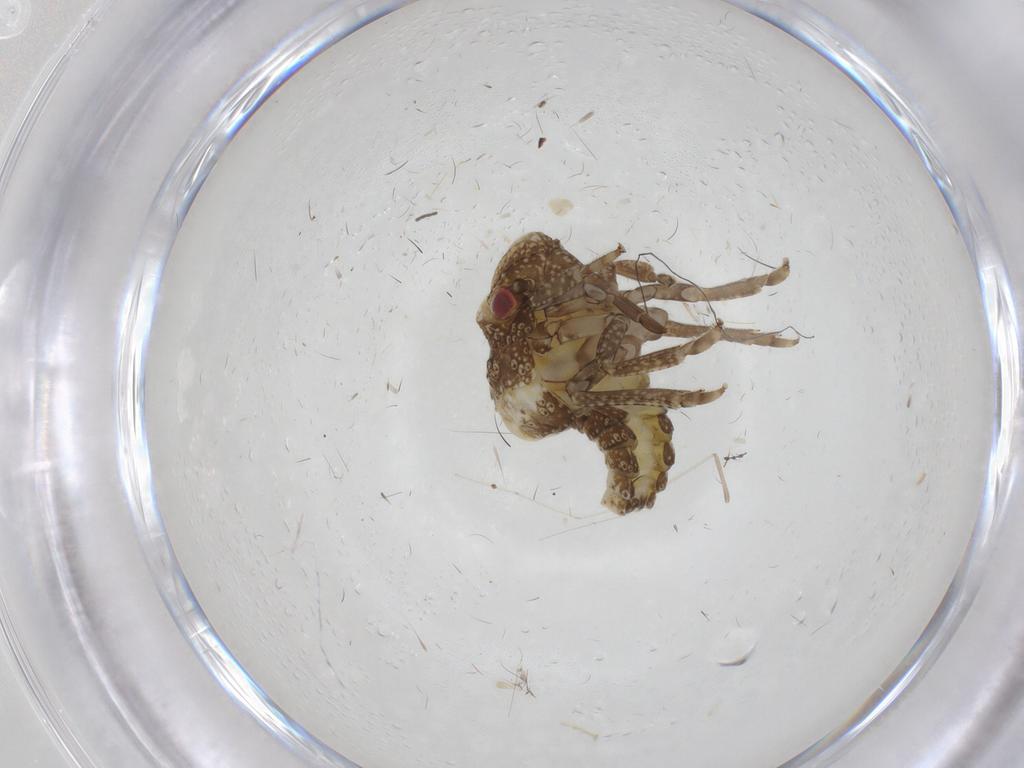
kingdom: Animalia
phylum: Arthropoda
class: Insecta
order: Hemiptera
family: Acanaloniidae
